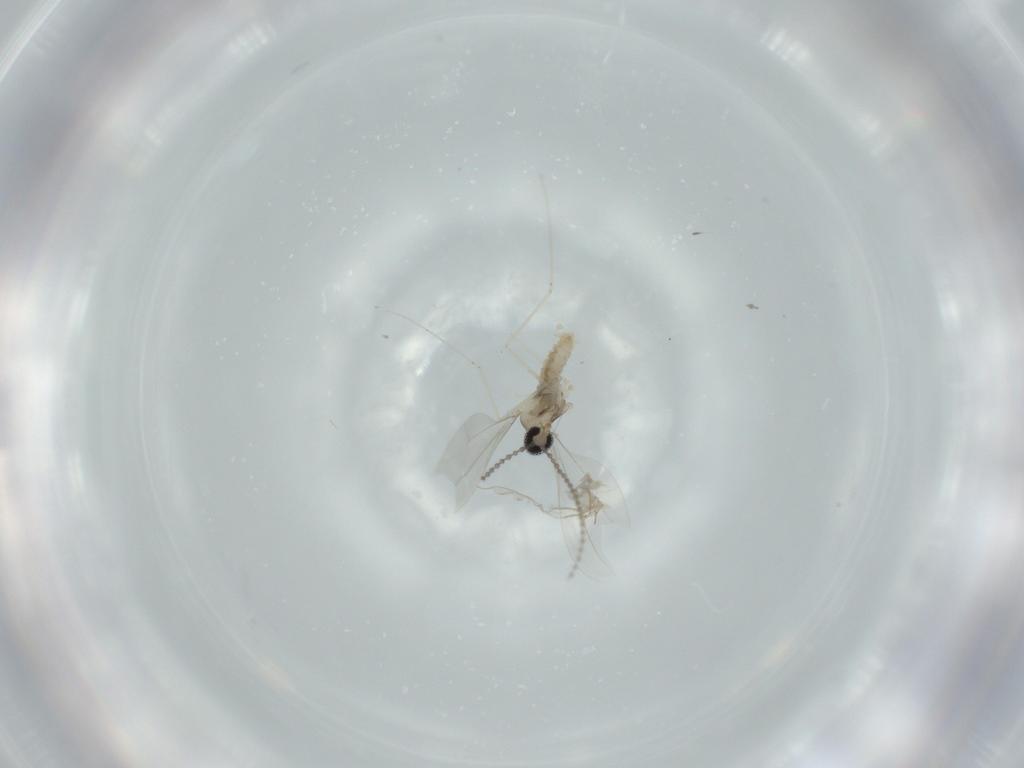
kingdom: Animalia
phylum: Arthropoda
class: Insecta
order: Diptera
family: Cecidomyiidae
